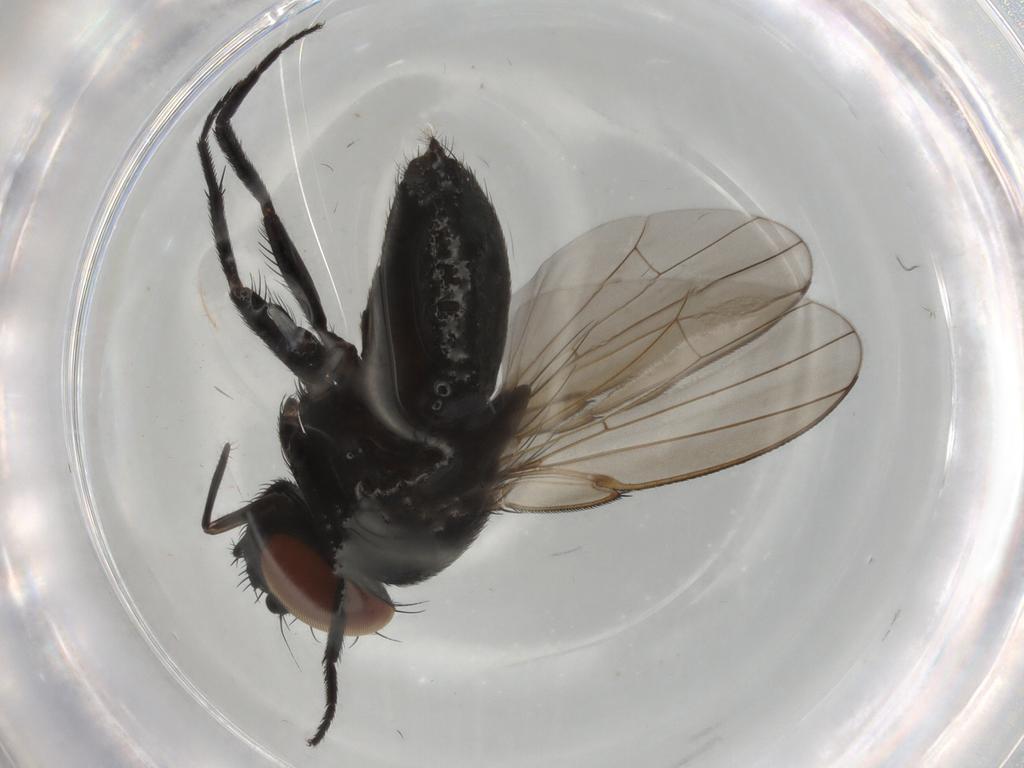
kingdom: Animalia
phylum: Arthropoda
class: Insecta
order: Diptera
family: Milichiidae
